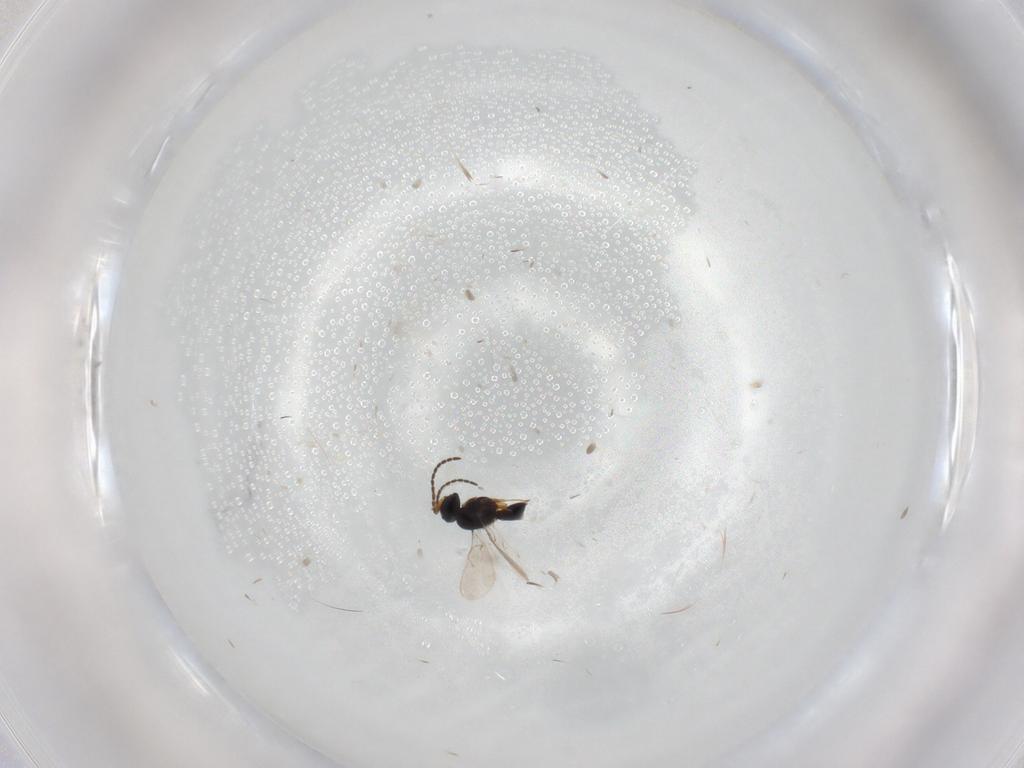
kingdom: Animalia
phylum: Arthropoda
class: Insecta
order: Hymenoptera
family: Scelionidae
